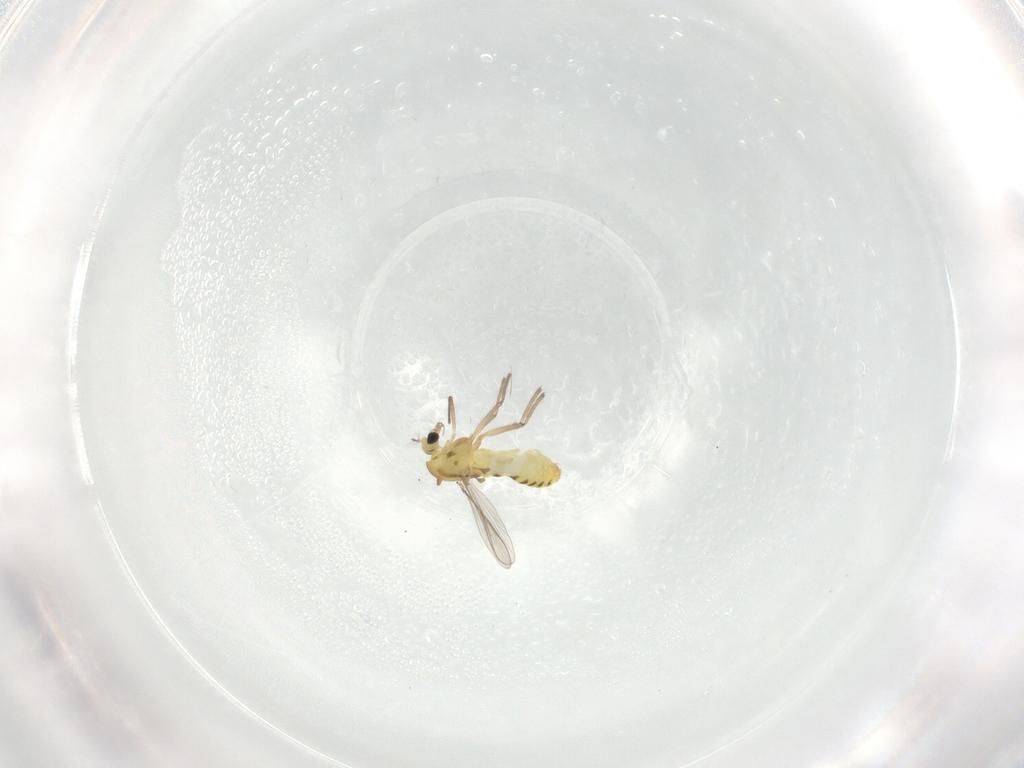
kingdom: Animalia
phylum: Arthropoda
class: Insecta
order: Diptera
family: Chironomidae
